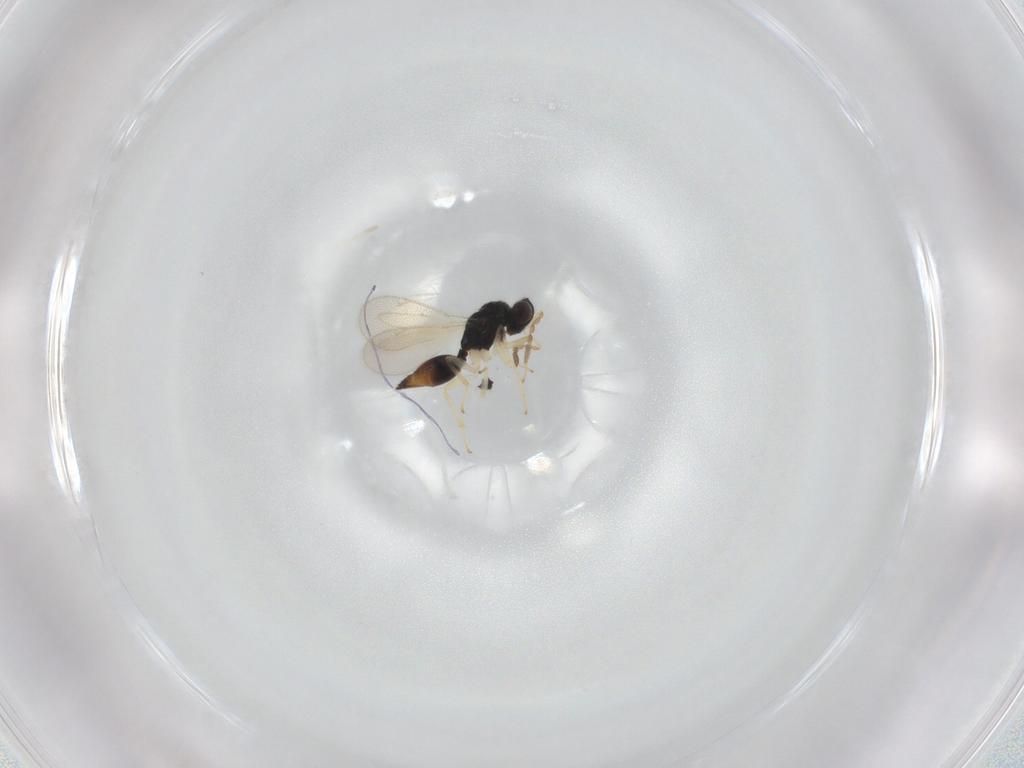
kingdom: Animalia
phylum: Arthropoda
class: Insecta
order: Hymenoptera
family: Eulophidae
